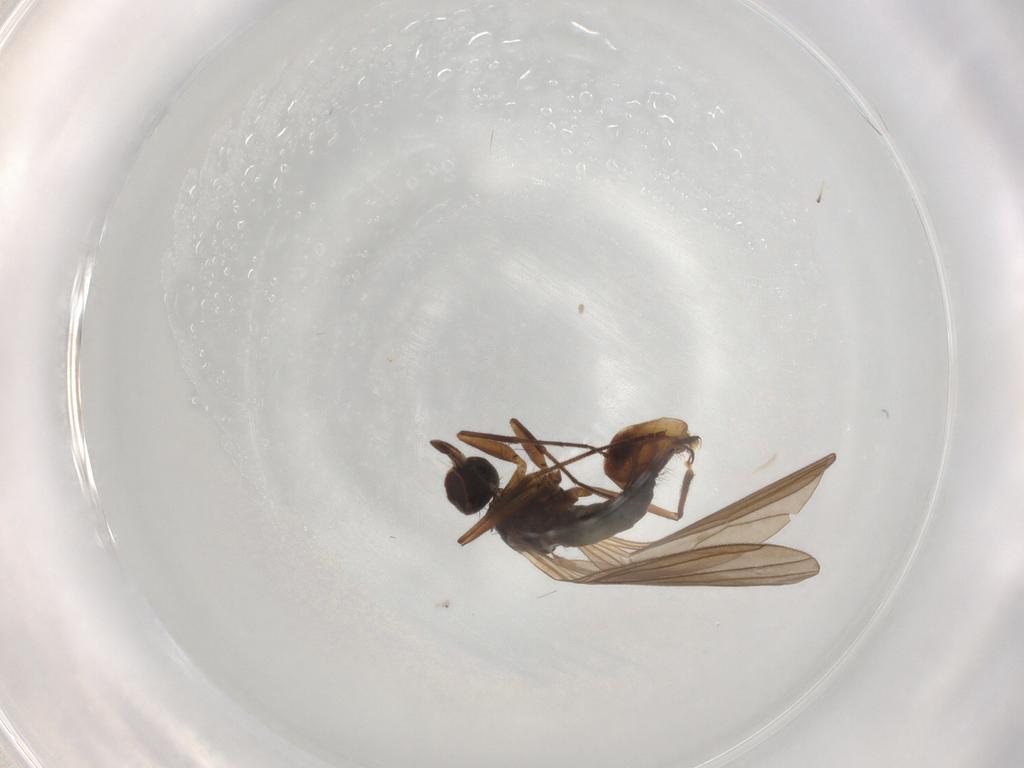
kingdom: Animalia
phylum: Arthropoda
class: Insecta
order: Diptera
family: Brachystomatidae
